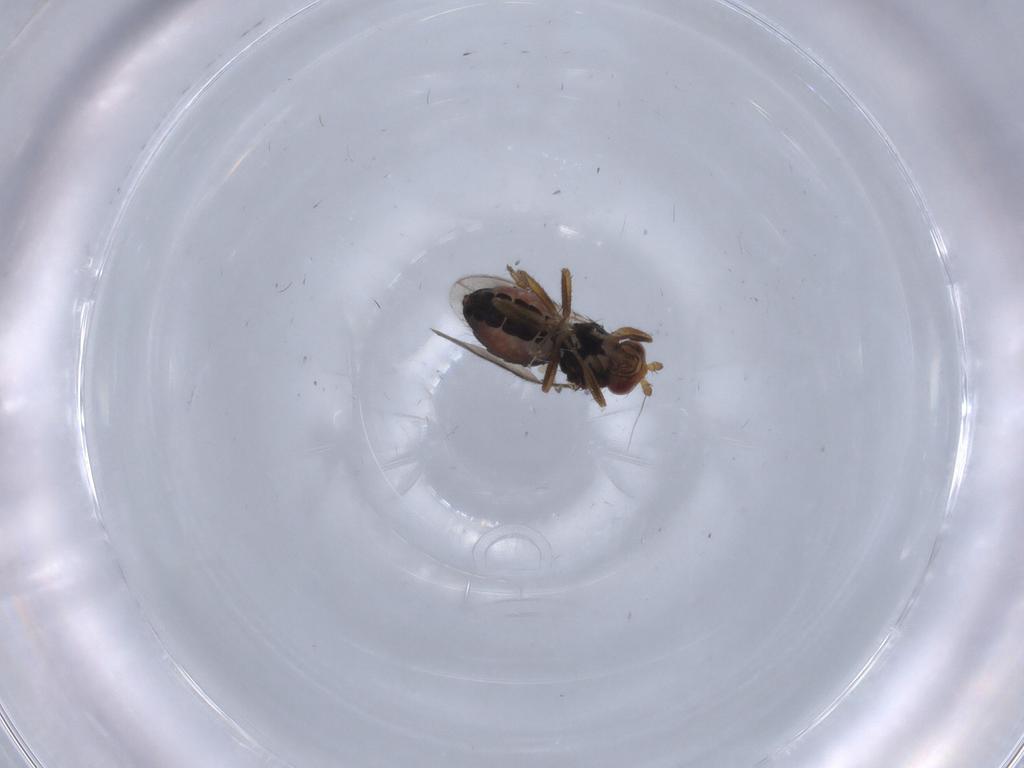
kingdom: Animalia
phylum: Arthropoda
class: Insecta
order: Diptera
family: Sphaeroceridae
